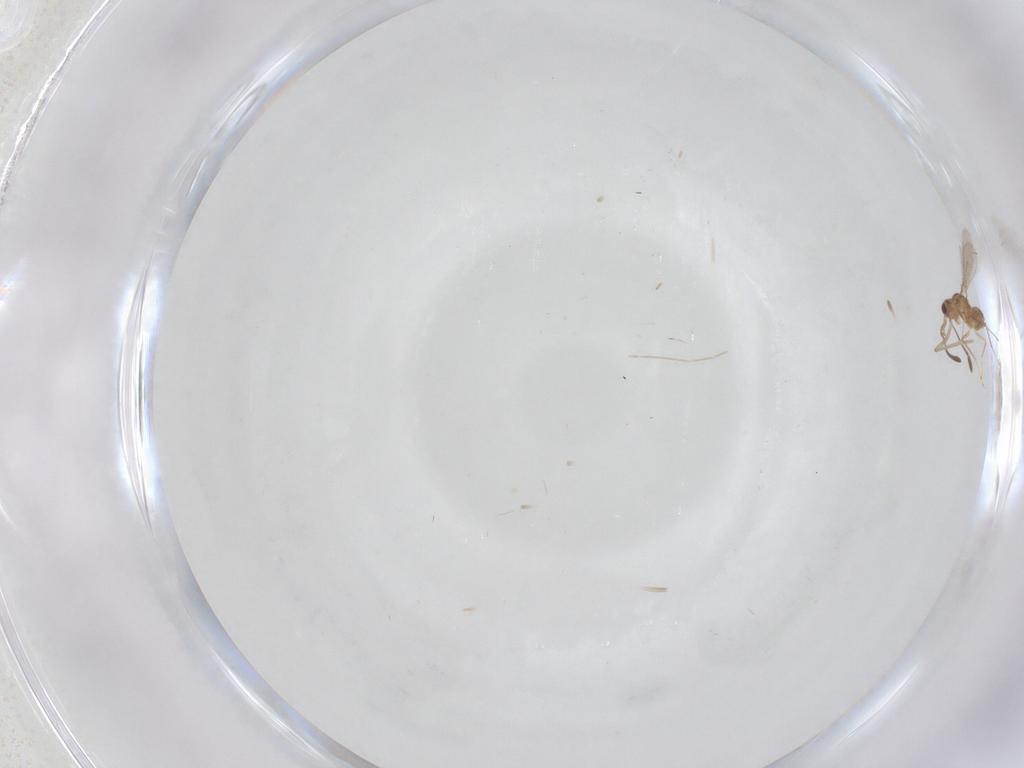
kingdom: Animalia
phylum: Arthropoda
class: Insecta
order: Hymenoptera
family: Mymaridae
